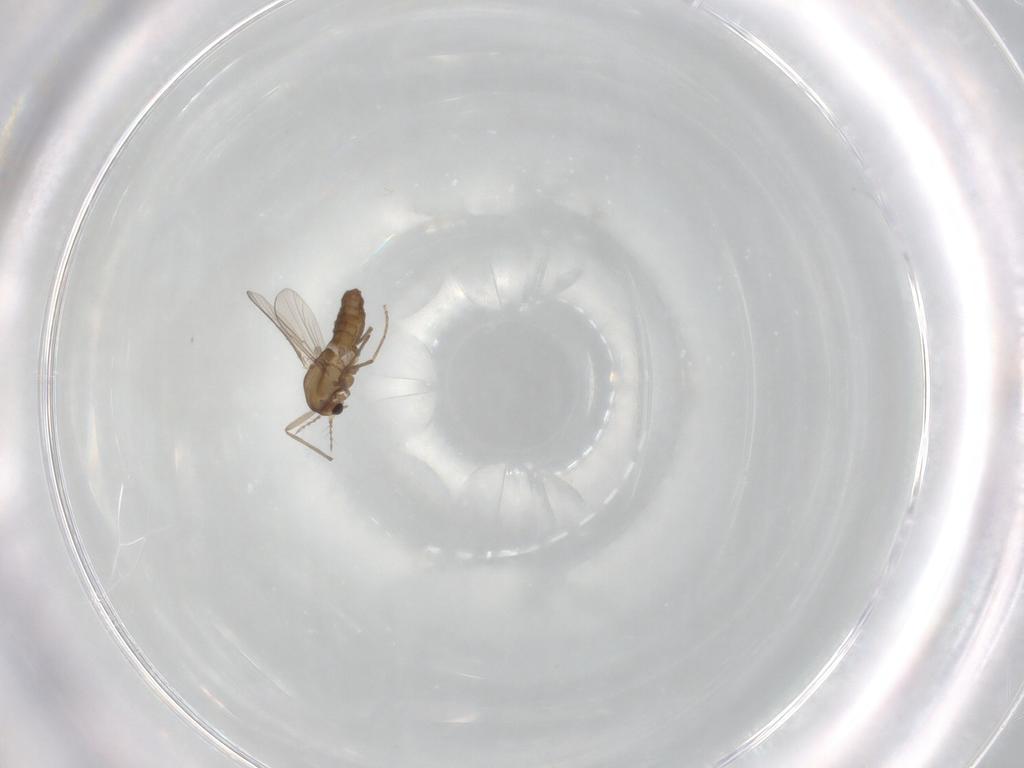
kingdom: Animalia
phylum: Arthropoda
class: Insecta
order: Diptera
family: Chironomidae
